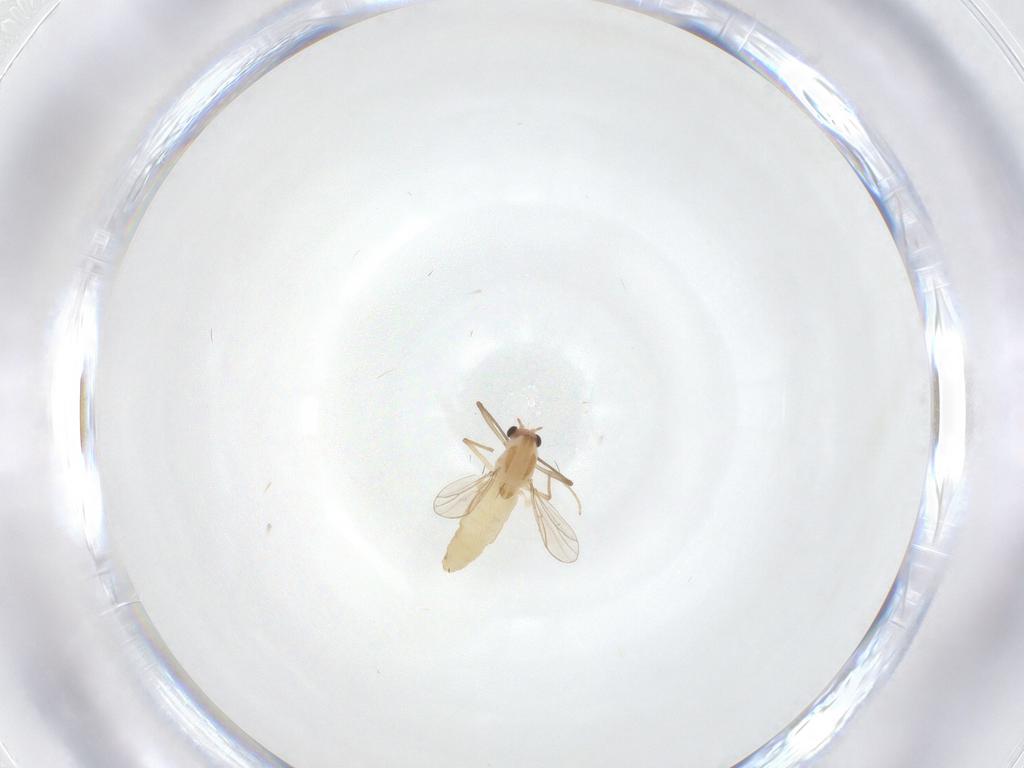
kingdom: Animalia
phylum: Arthropoda
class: Insecta
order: Diptera
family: Chironomidae
